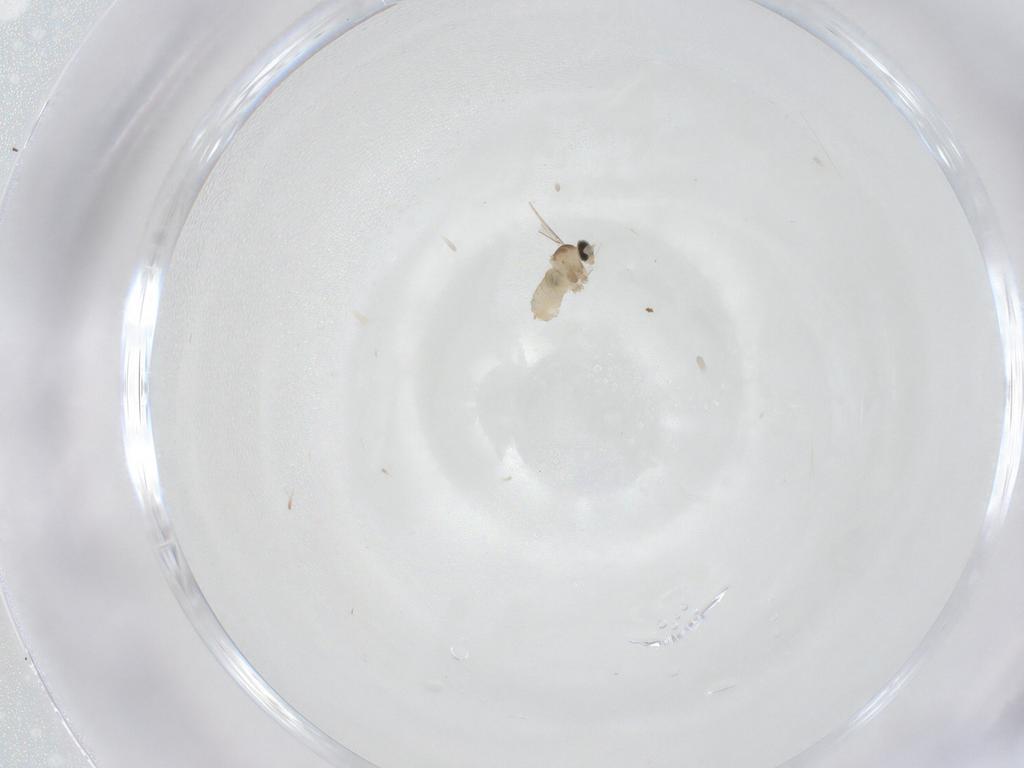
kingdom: Animalia
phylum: Arthropoda
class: Insecta
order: Diptera
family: Cecidomyiidae
